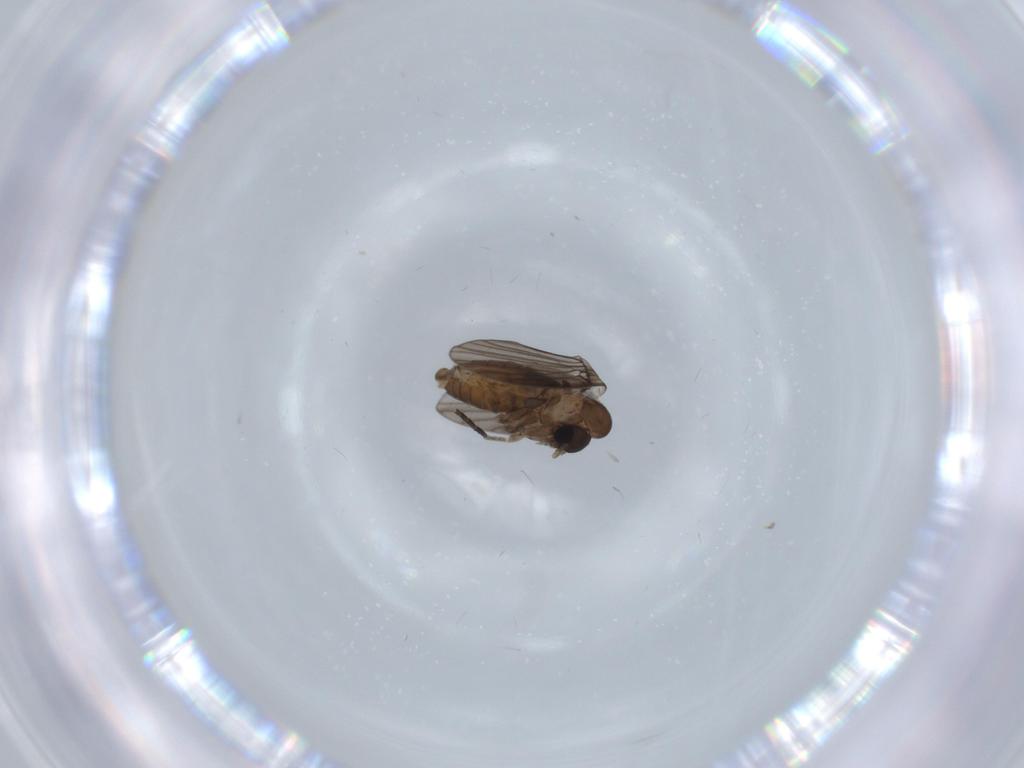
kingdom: Animalia
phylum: Arthropoda
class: Insecta
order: Diptera
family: Psychodidae
